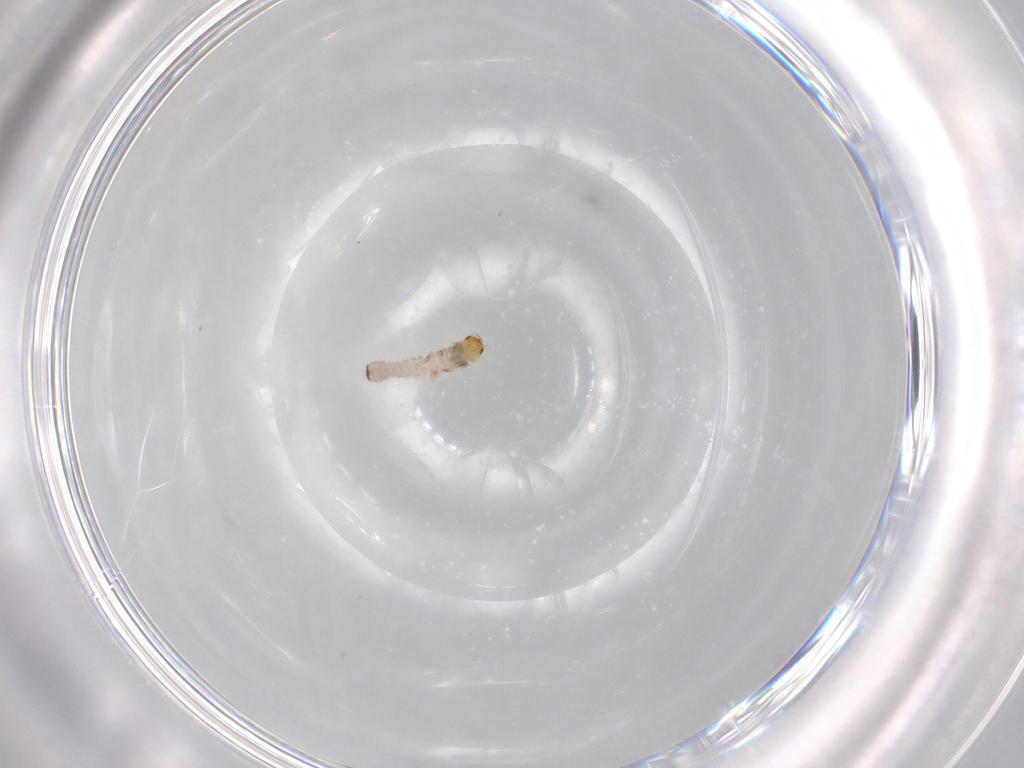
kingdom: Animalia
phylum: Arthropoda
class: Insecta
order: Diptera
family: Ceratopogonidae
